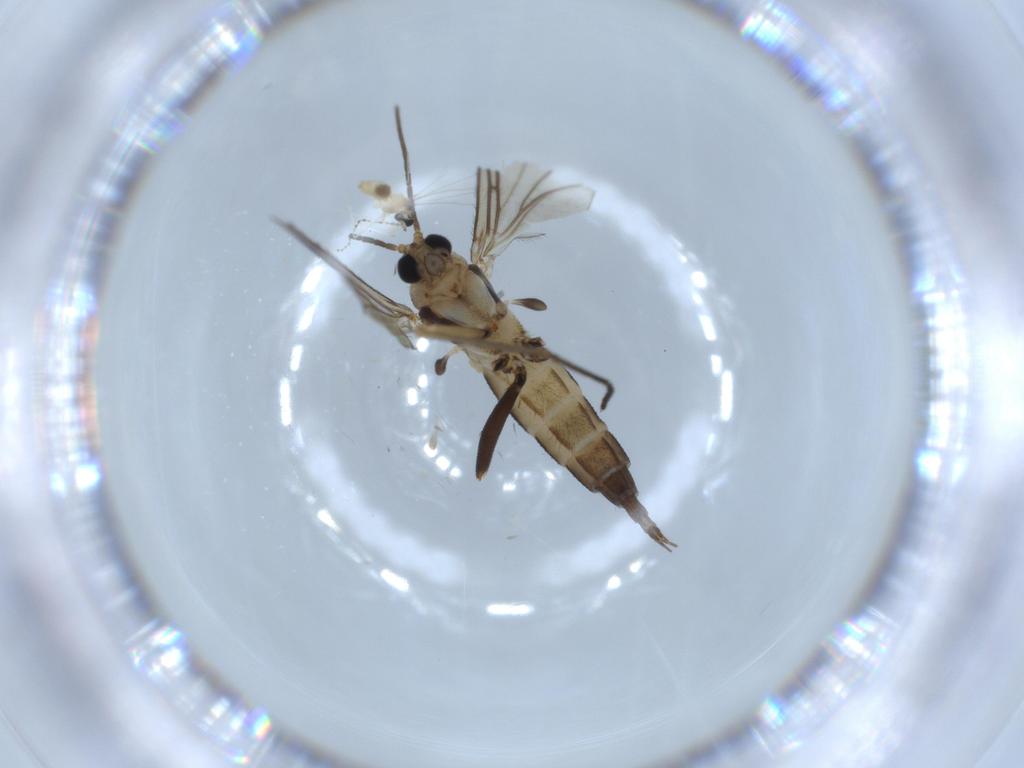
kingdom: Animalia
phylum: Arthropoda
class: Insecta
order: Diptera
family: Cecidomyiidae
